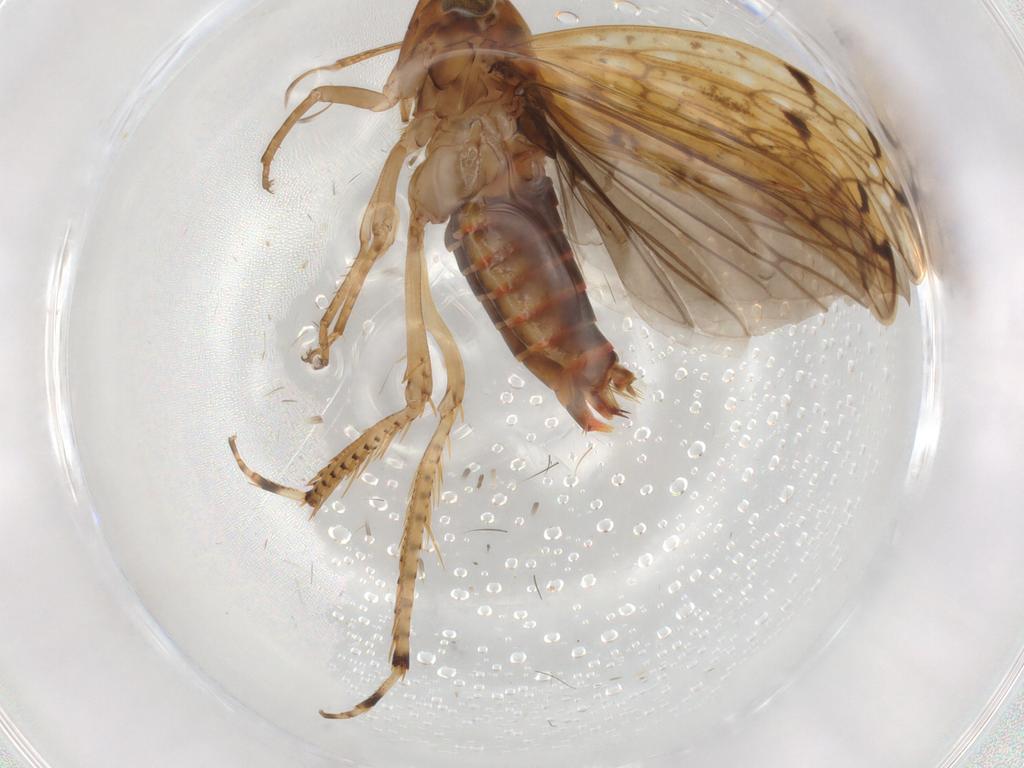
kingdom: Animalia
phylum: Arthropoda
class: Insecta
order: Hemiptera
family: Cicadellidae
